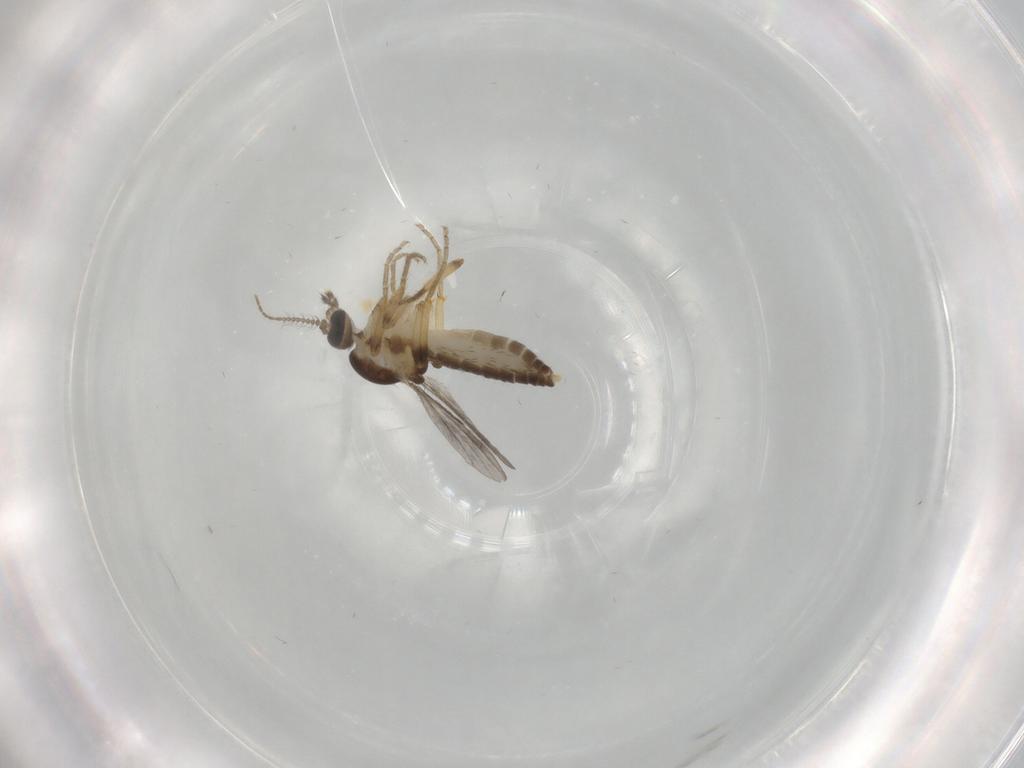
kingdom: Animalia
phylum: Arthropoda
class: Insecta
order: Diptera
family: Ceratopogonidae
